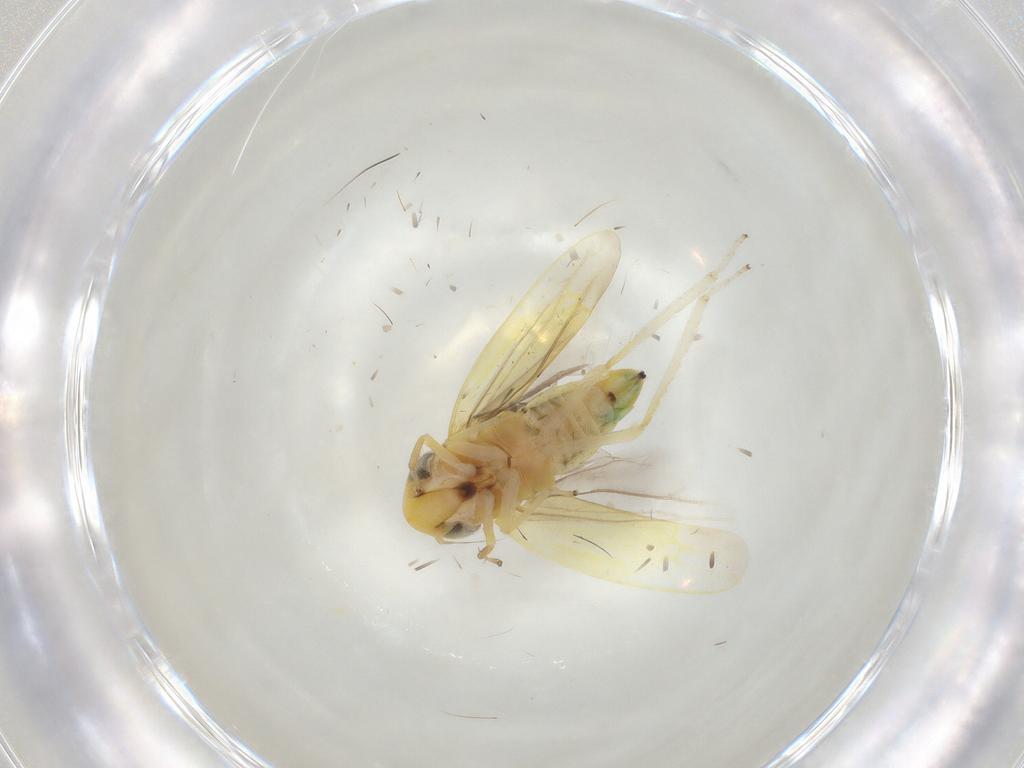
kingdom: Animalia
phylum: Arthropoda
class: Insecta
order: Hemiptera
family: Cicadellidae
